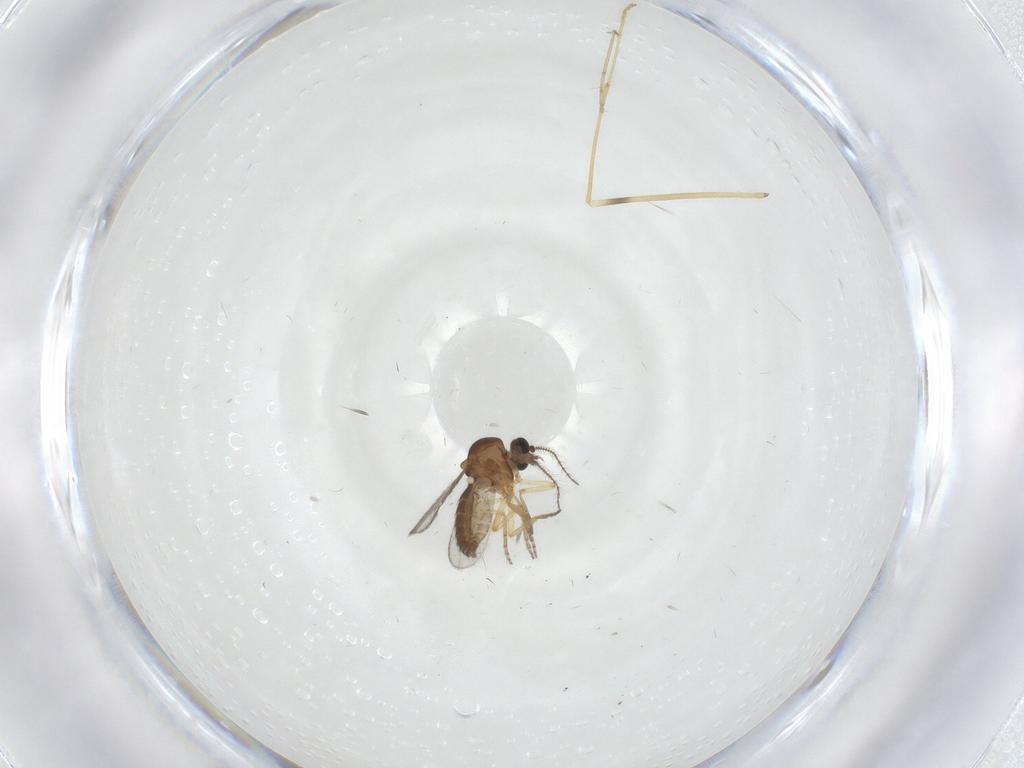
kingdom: Animalia
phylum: Arthropoda
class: Insecta
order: Diptera
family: Ceratopogonidae
